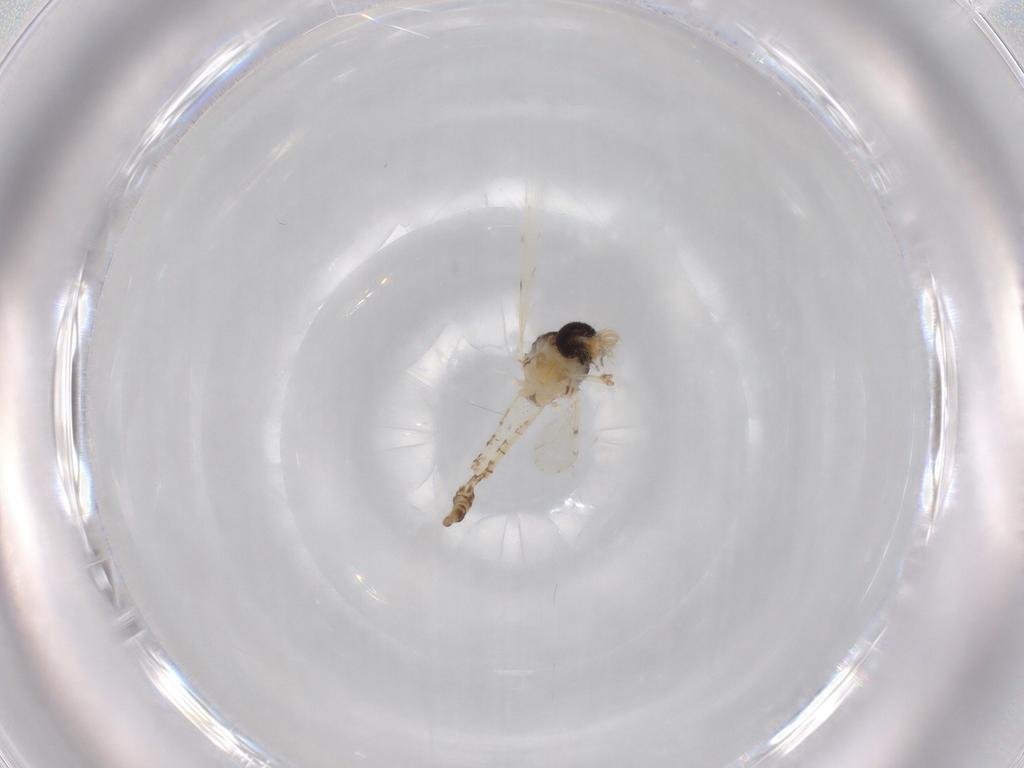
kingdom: Animalia
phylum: Arthropoda
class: Insecta
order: Diptera
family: Ceratopogonidae
